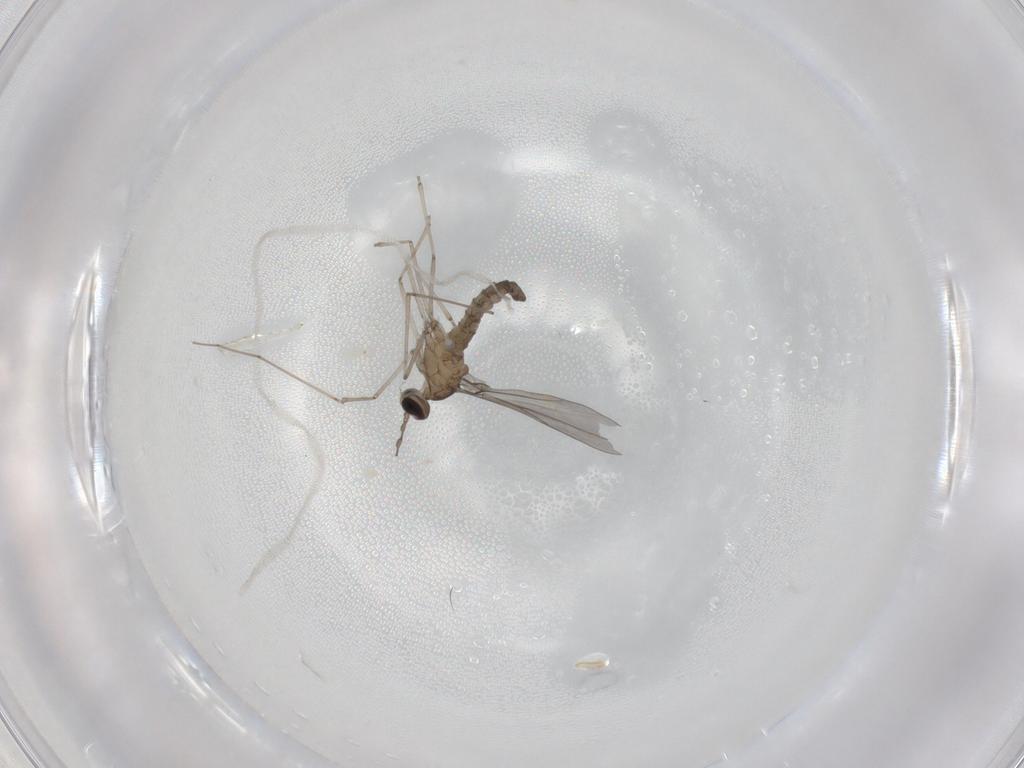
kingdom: Animalia
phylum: Arthropoda
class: Insecta
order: Diptera
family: Cecidomyiidae
